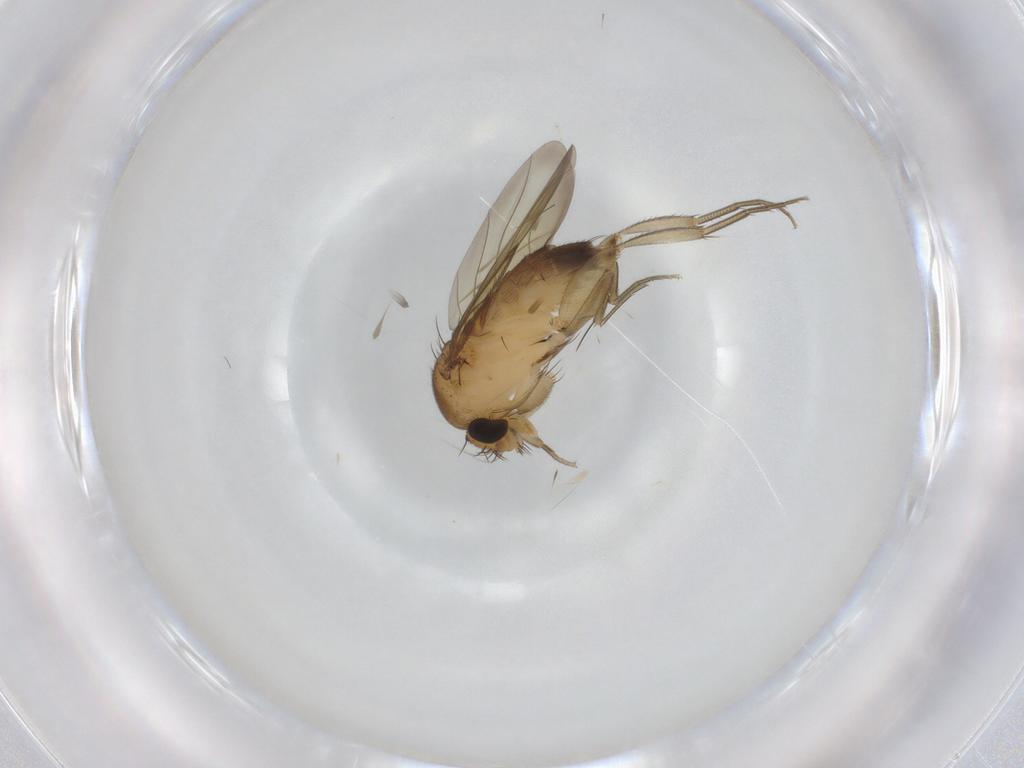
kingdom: Animalia
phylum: Arthropoda
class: Insecta
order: Diptera
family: Phoridae
